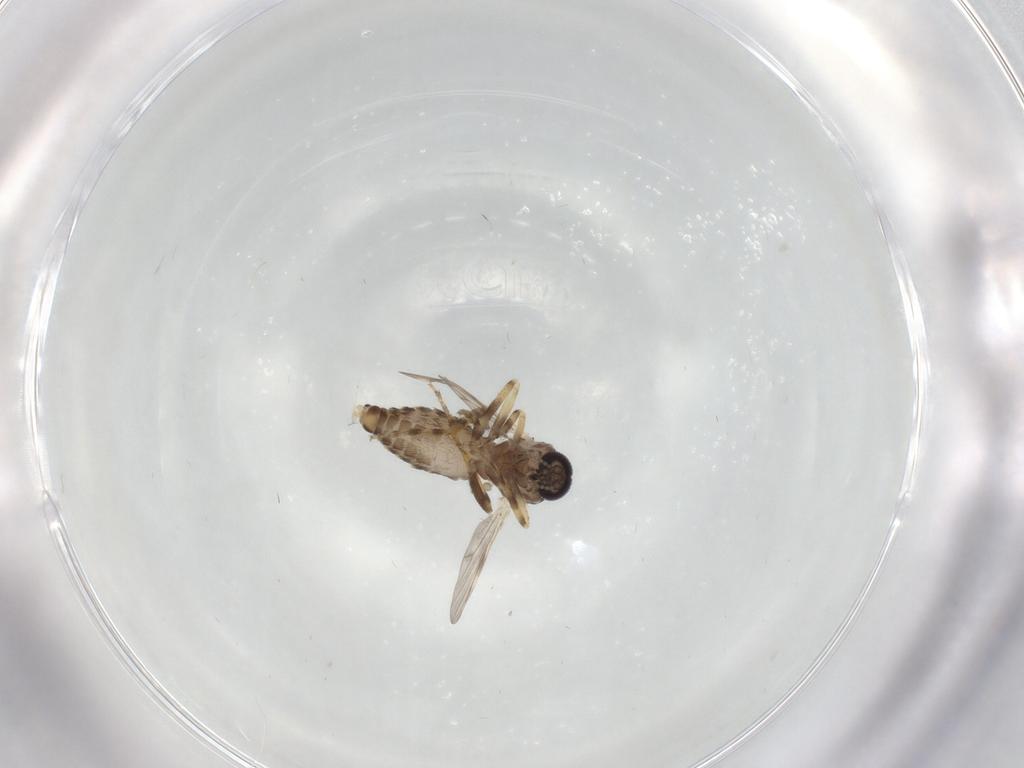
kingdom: Animalia
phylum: Arthropoda
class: Insecta
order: Diptera
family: Ceratopogonidae
